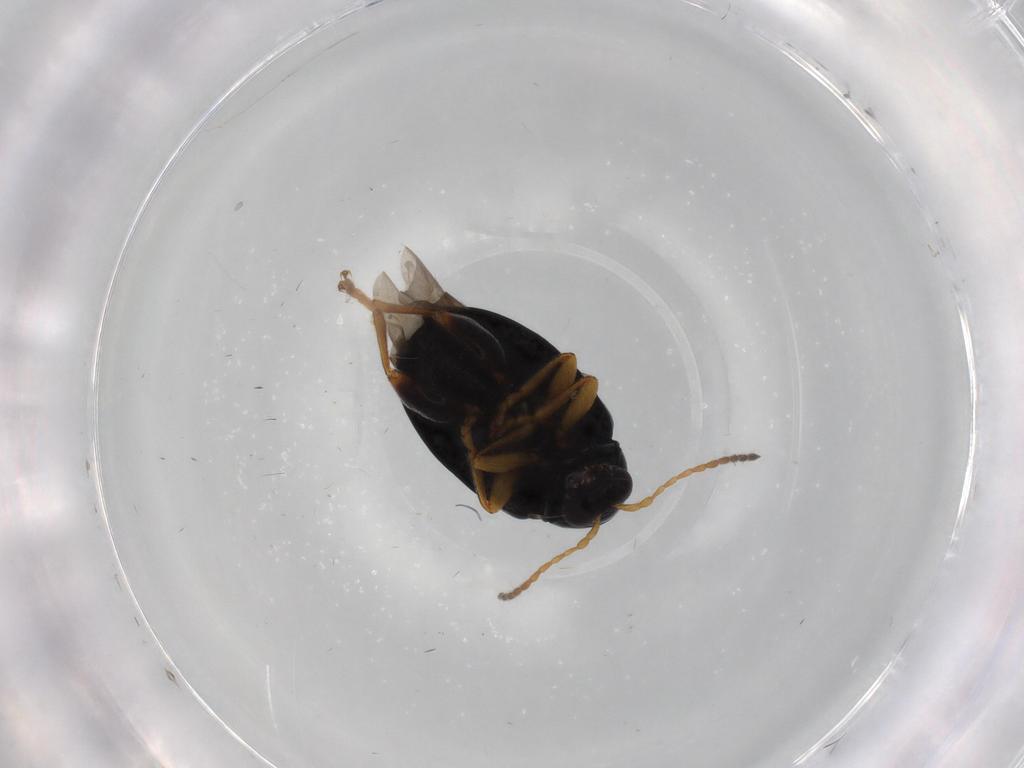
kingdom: Animalia
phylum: Arthropoda
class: Insecta
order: Coleoptera
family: Chrysomelidae
